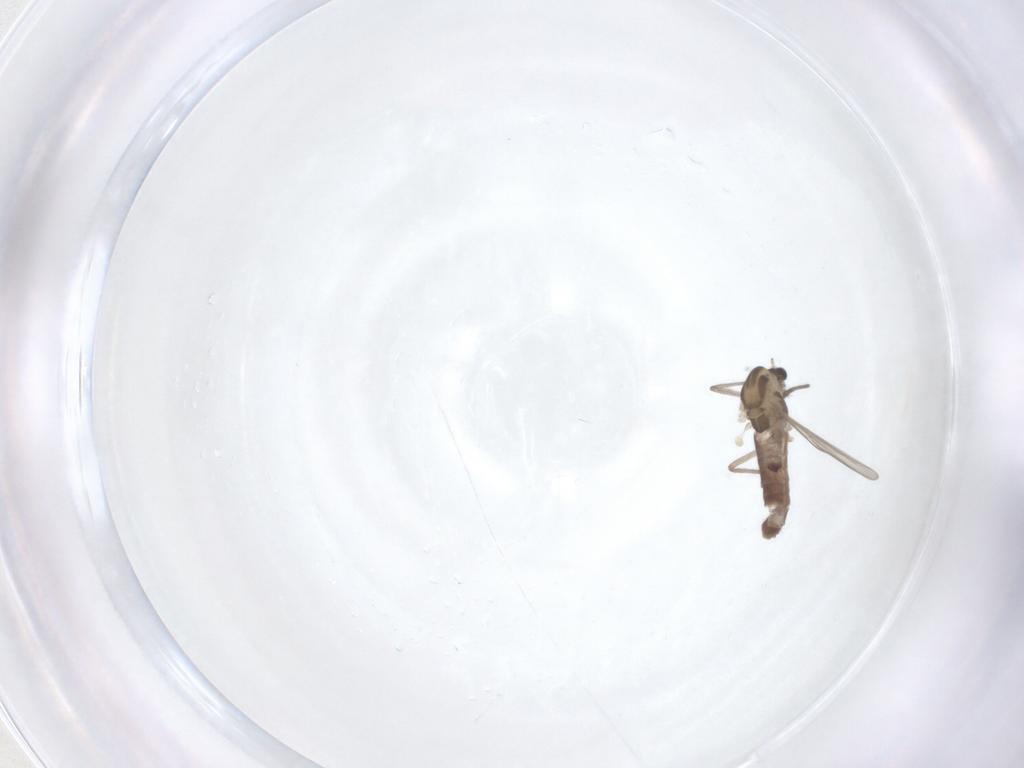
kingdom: Animalia
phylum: Arthropoda
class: Insecta
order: Diptera
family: Chironomidae
